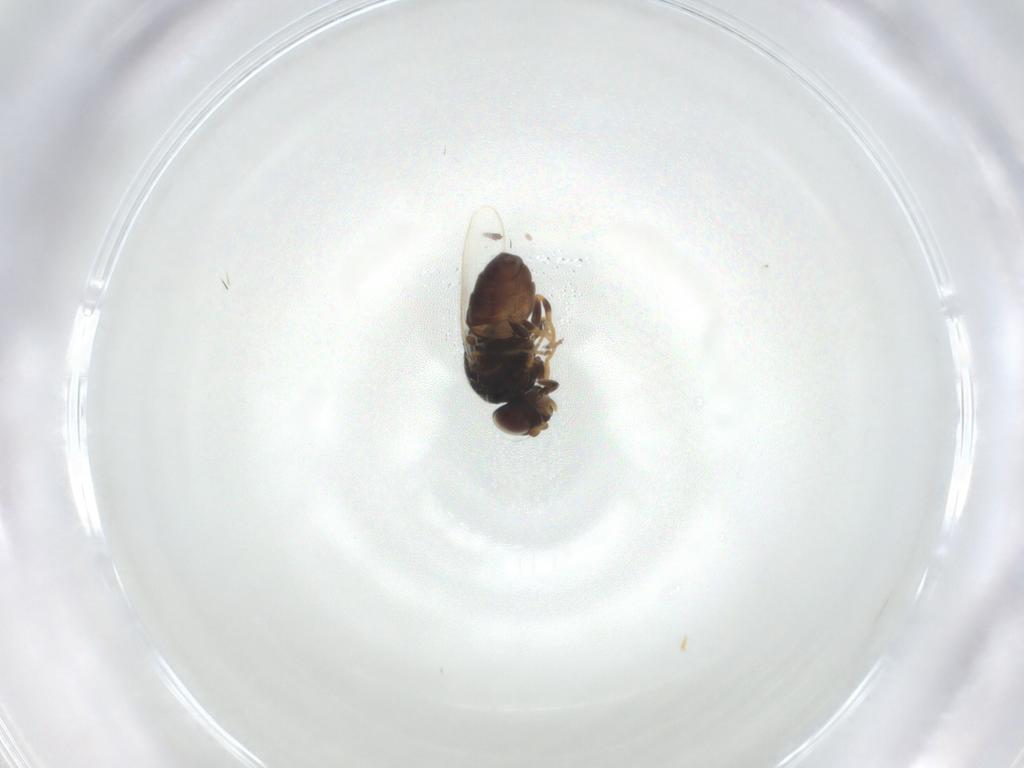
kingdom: Animalia
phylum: Arthropoda
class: Insecta
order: Diptera
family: Chloropidae
